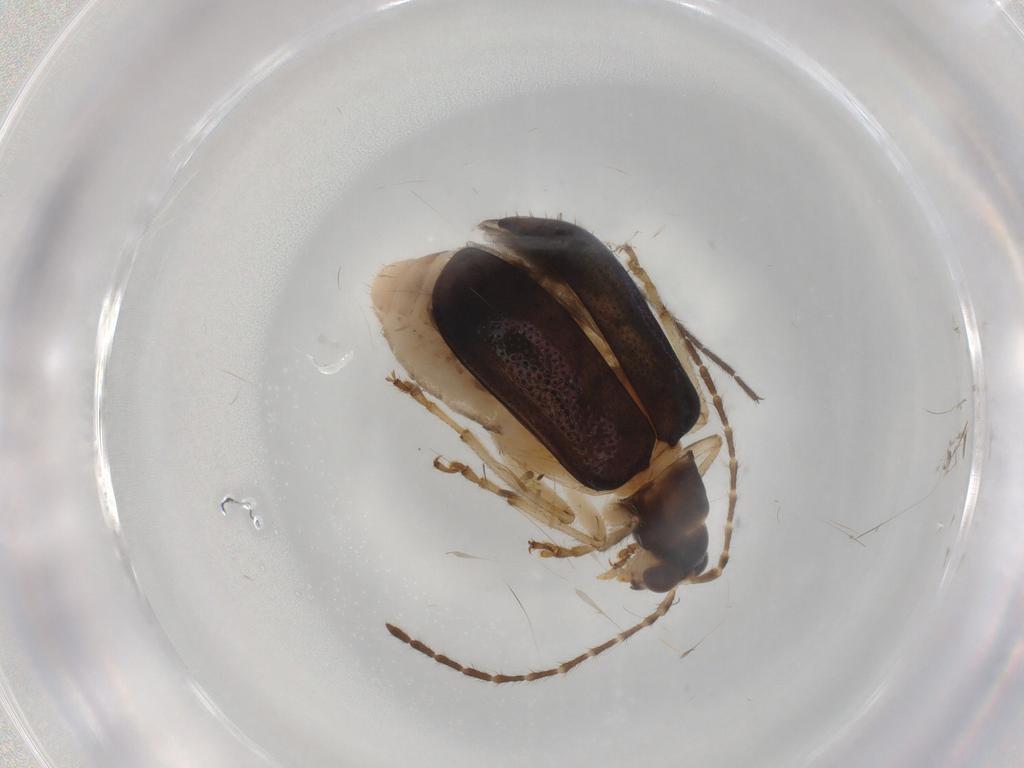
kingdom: Animalia
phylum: Arthropoda
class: Insecta
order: Coleoptera
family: Chrysomelidae
